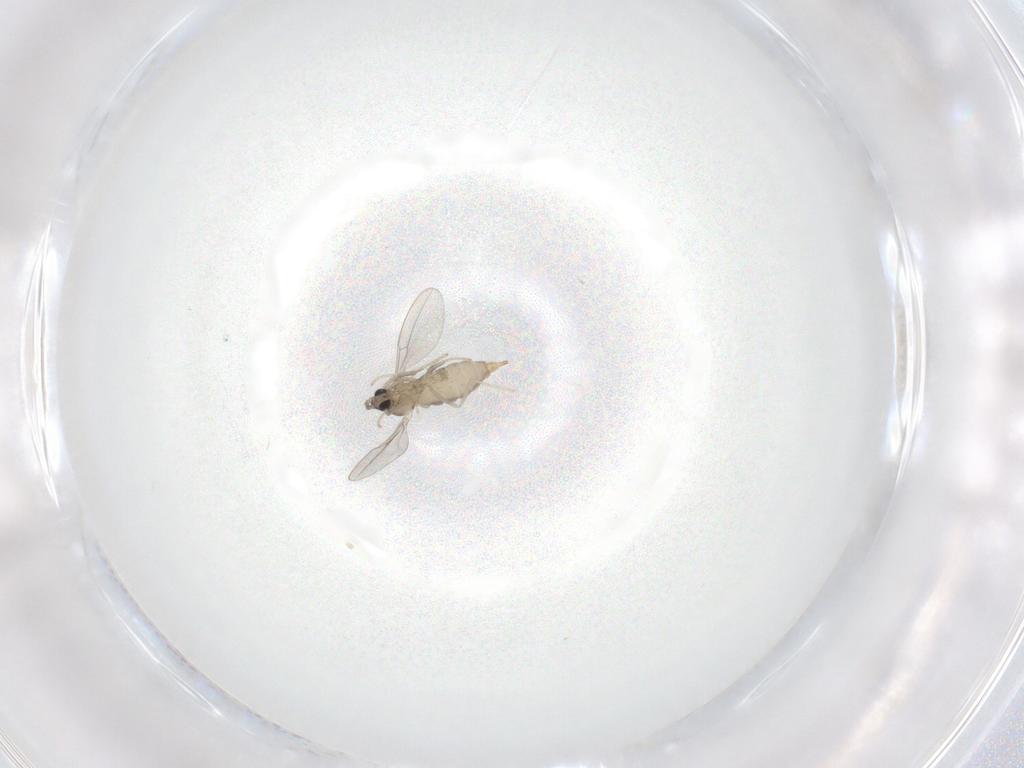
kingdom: Animalia
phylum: Arthropoda
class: Insecta
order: Diptera
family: Cecidomyiidae
